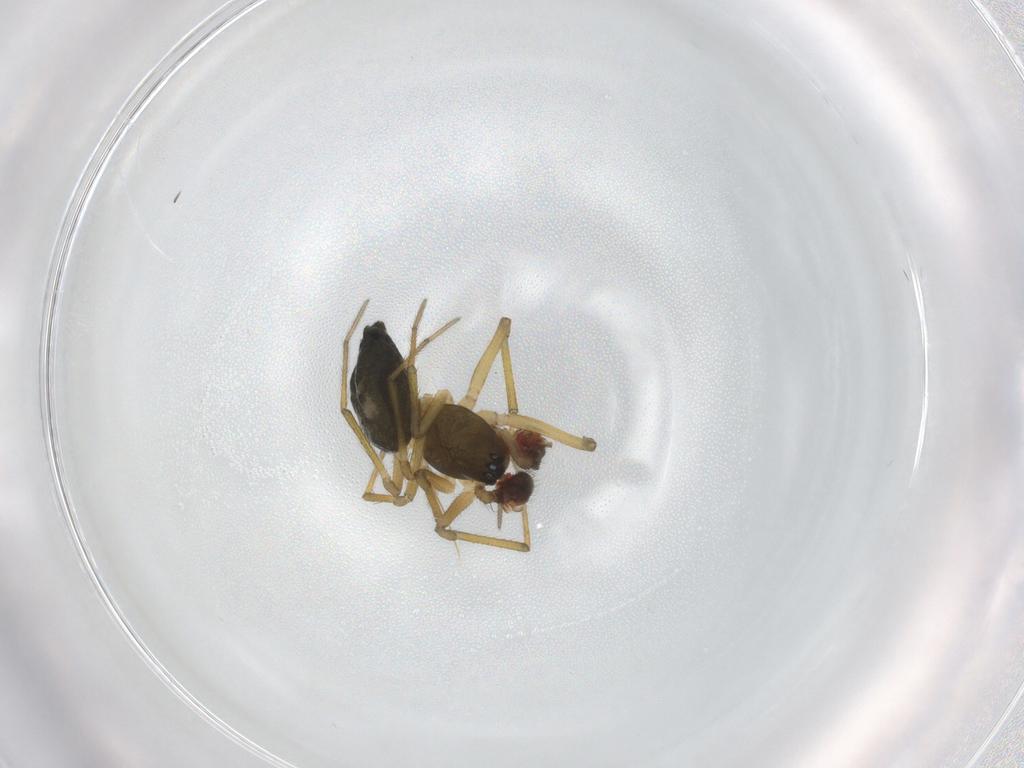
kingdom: Animalia
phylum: Arthropoda
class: Arachnida
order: Araneae
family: Linyphiidae
